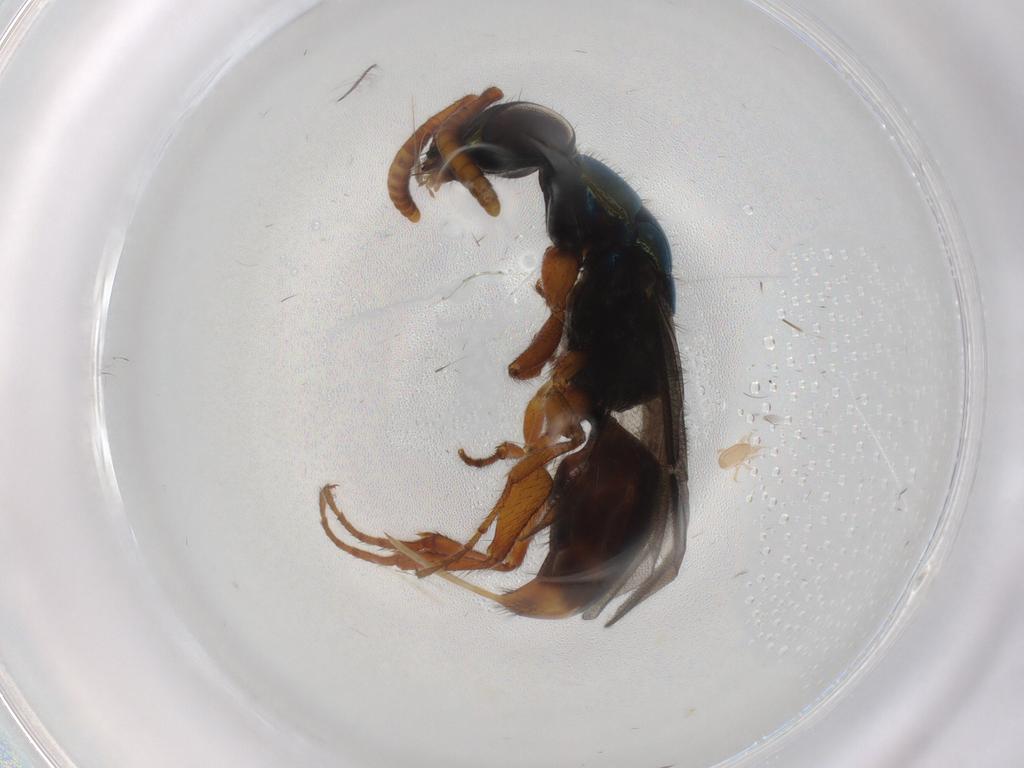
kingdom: Animalia
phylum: Arthropoda
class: Insecta
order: Hymenoptera
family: Chrysididae
